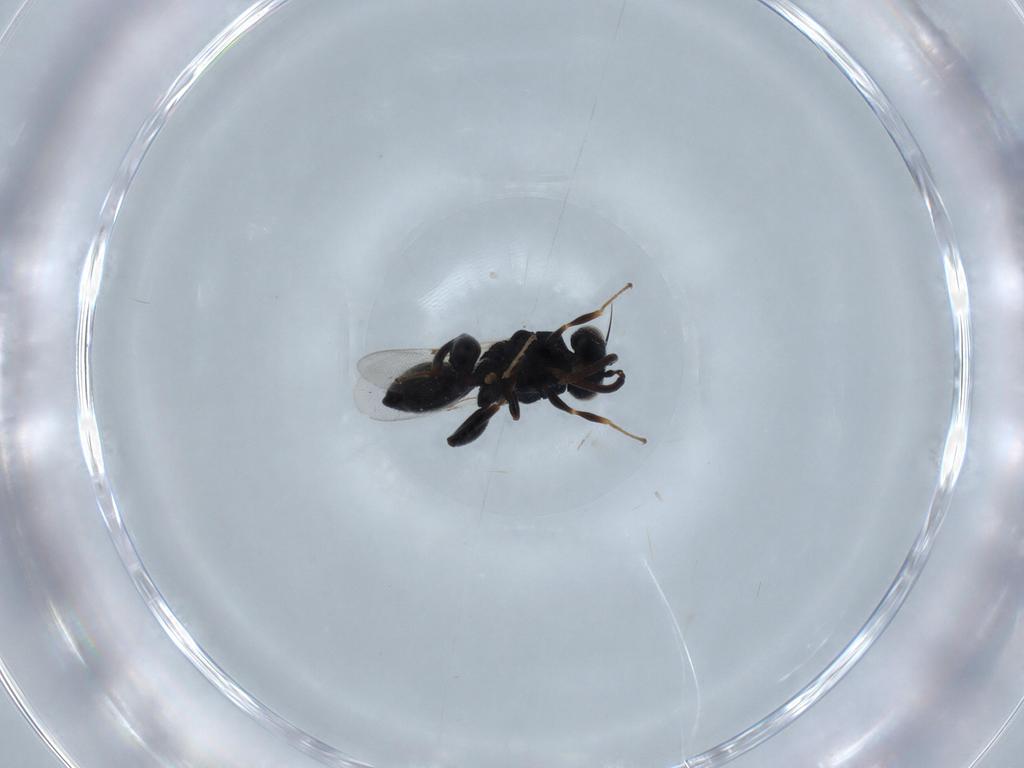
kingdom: Animalia
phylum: Arthropoda
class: Insecta
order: Hymenoptera
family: Chalcididae
